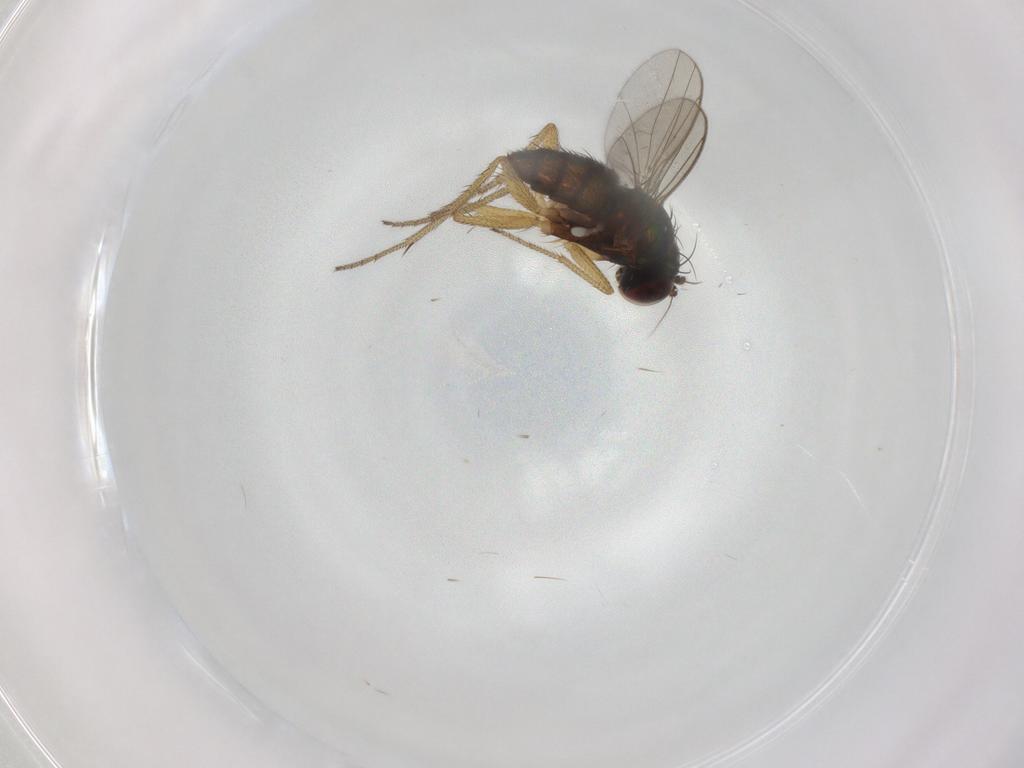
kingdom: Animalia
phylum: Arthropoda
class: Insecta
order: Diptera
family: Dolichopodidae
